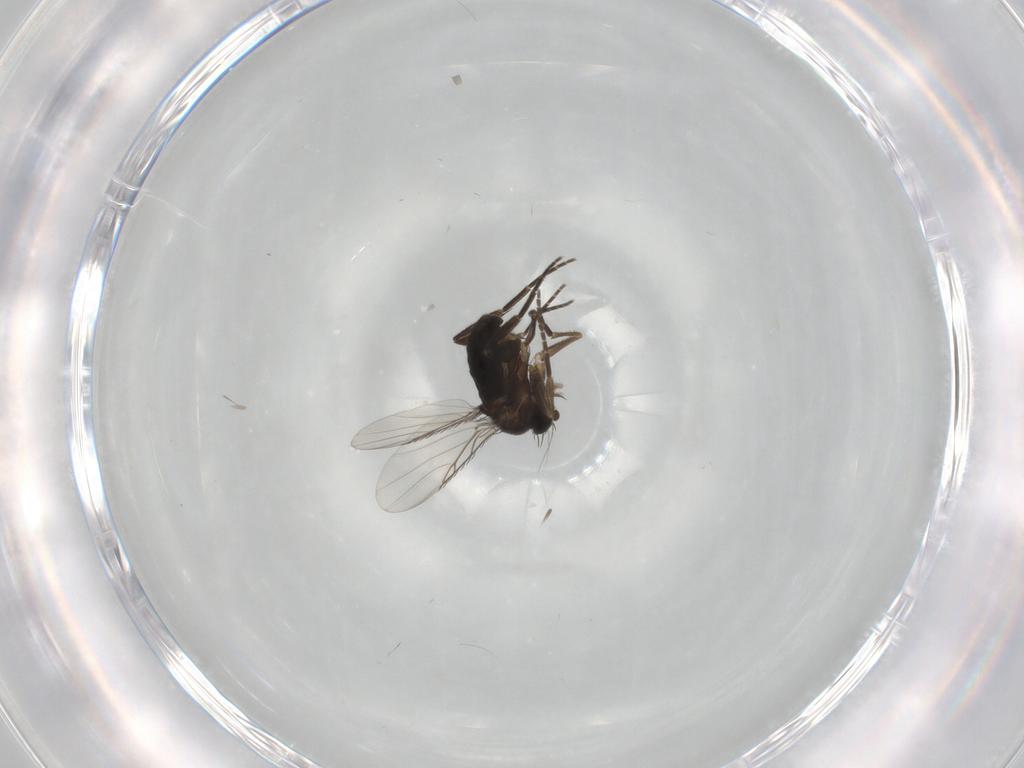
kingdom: Animalia
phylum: Arthropoda
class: Insecta
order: Diptera
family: Phoridae
